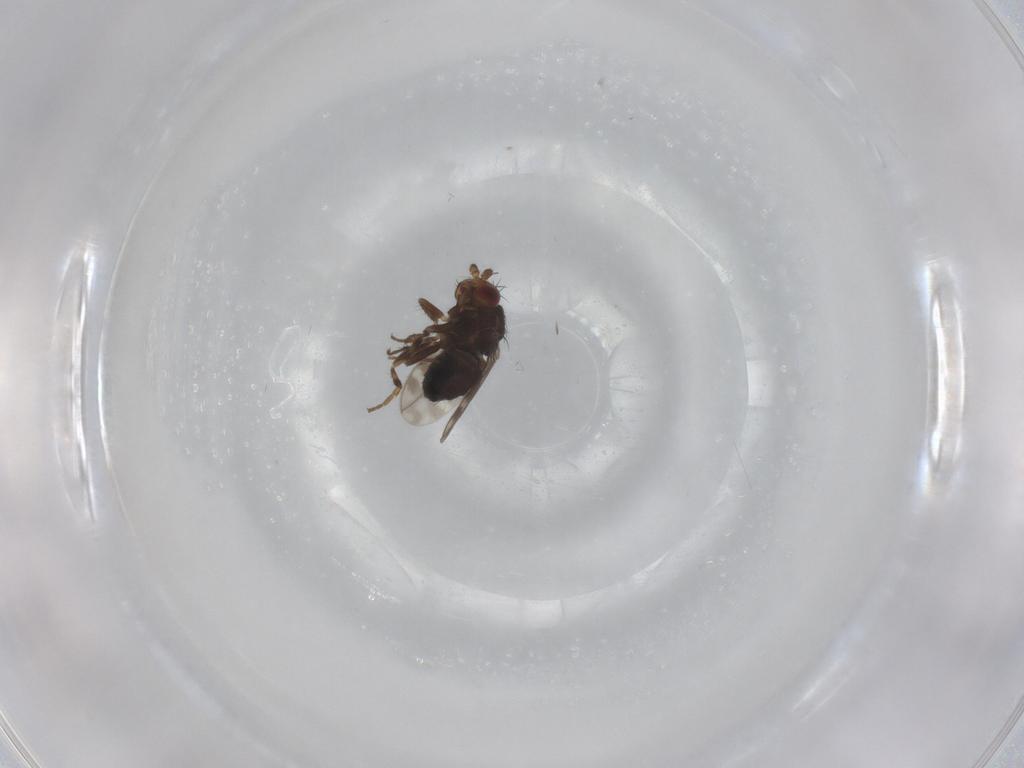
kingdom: Animalia
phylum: Arthropoda
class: Insecta
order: Diptera
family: Sphaeroceridae
